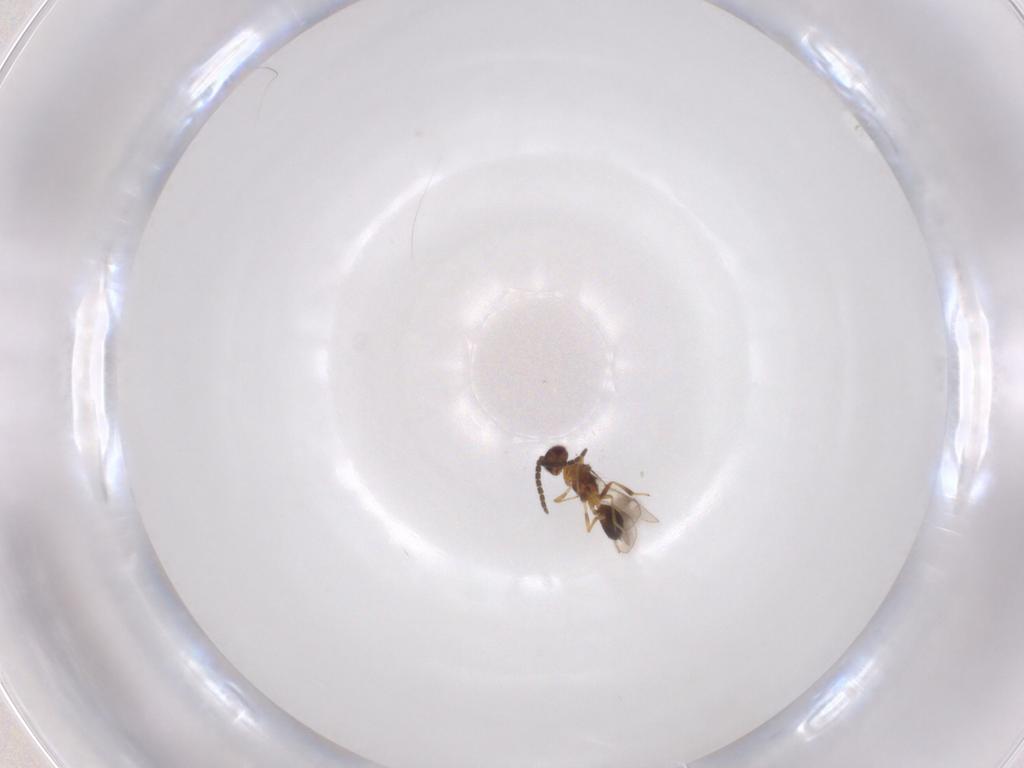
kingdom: Animalia
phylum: Arthropoda
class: Insecta
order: Hymenoptera
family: Pteromalidae
